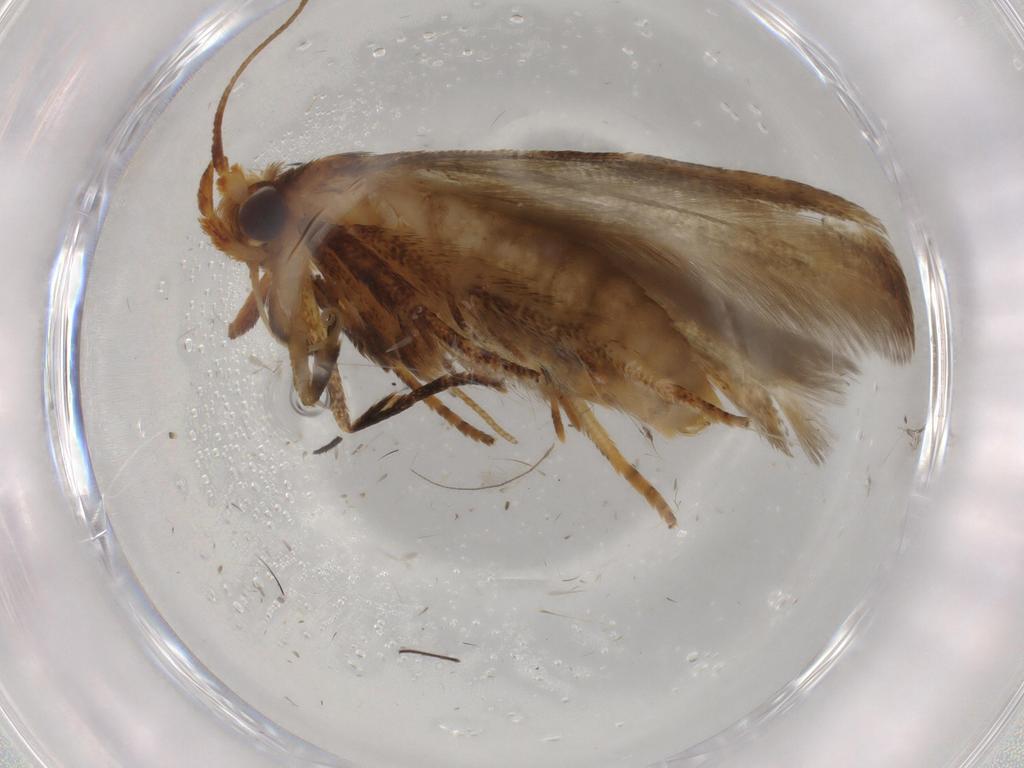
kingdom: Animalia
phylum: Arthropoda
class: Insecta
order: Lepidoptera
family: Blastobasidae
